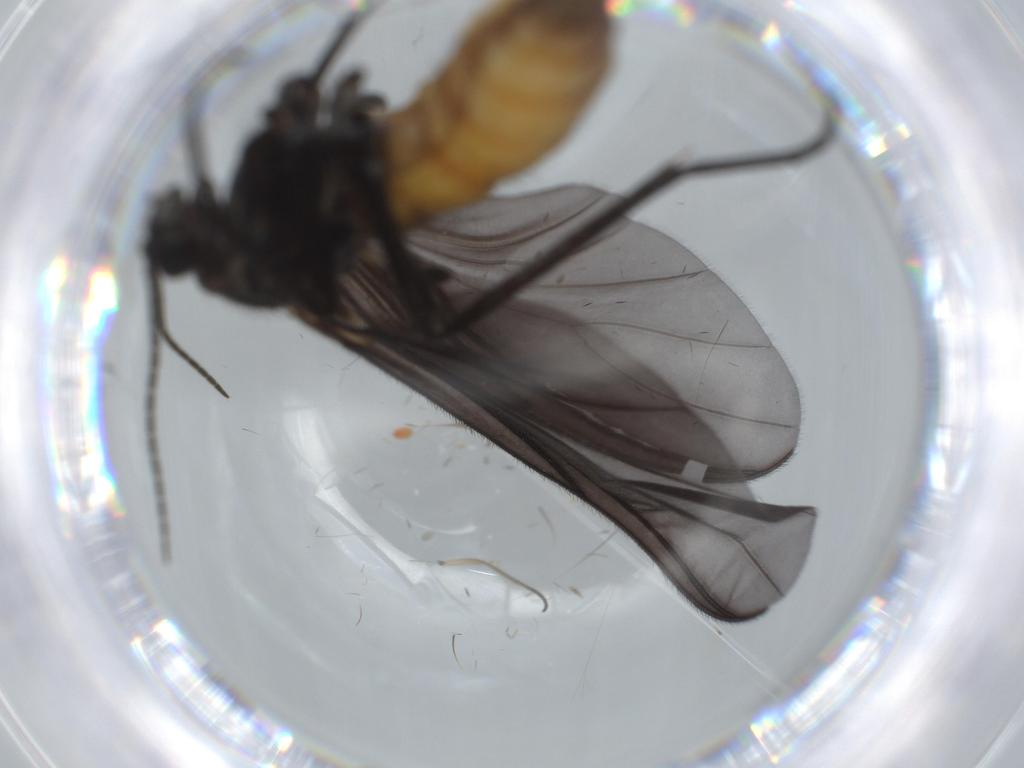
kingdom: Animalia
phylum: Arthropoda
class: Insecta
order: Diptera
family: Sciaridae
